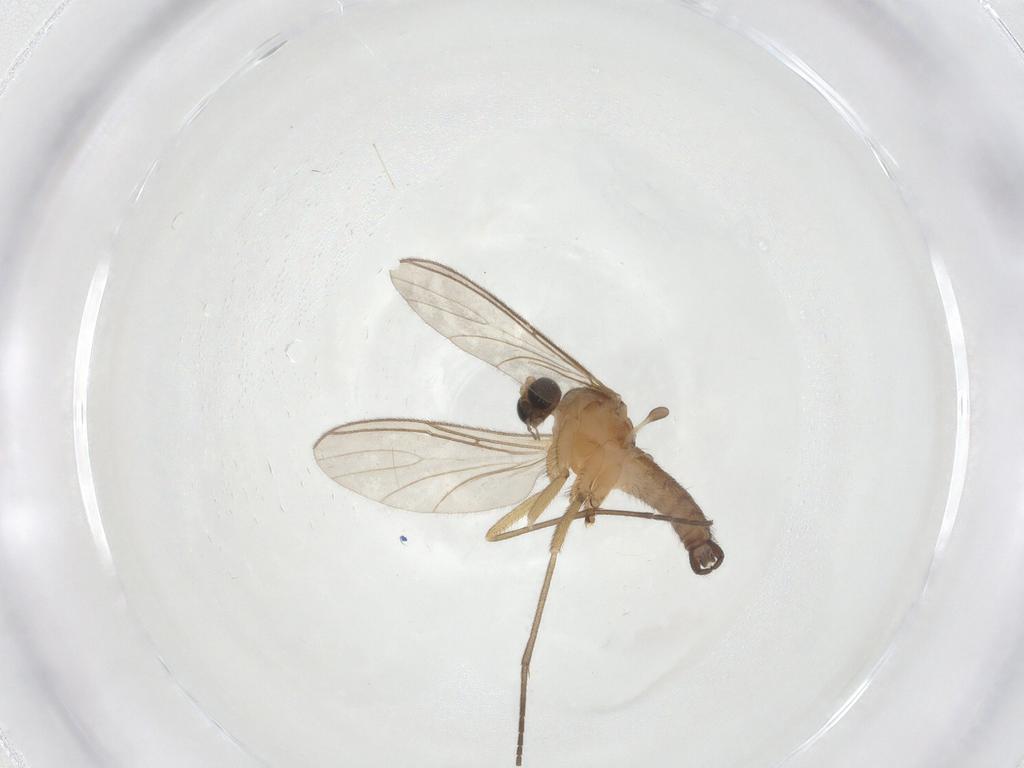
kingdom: Animalia
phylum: Arthropoda
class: Insecta
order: Diptera
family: Sciaridae
